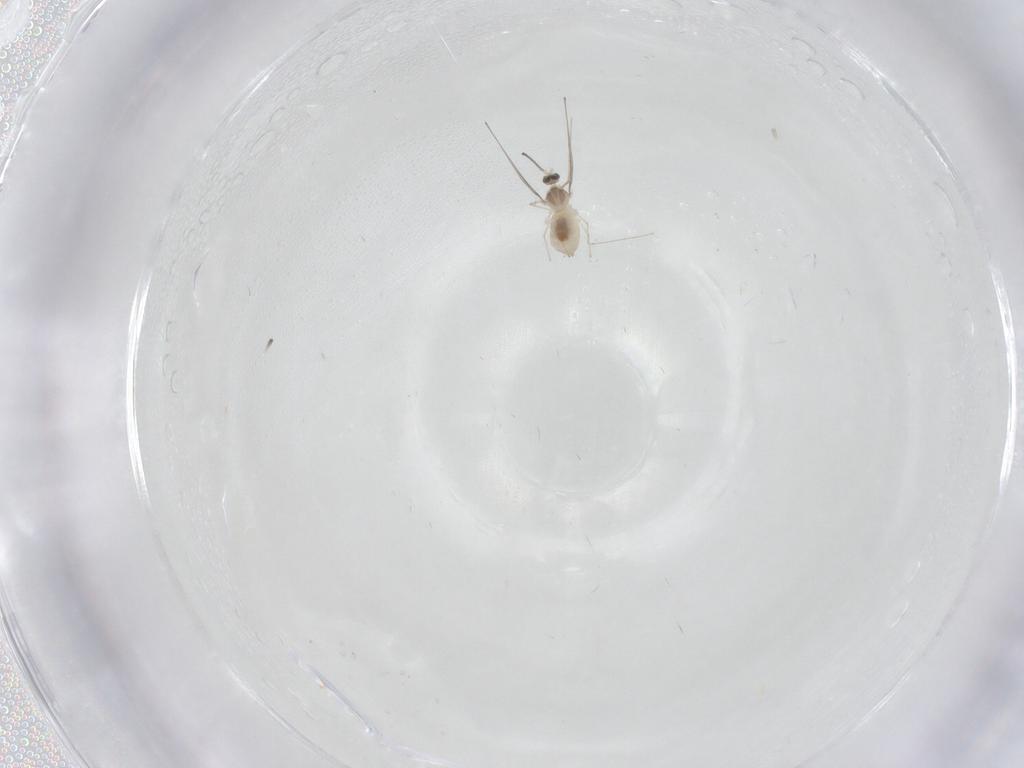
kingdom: Animalia
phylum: Arthropoda
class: Insecta
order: Diptera
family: Cecidomyiidae
